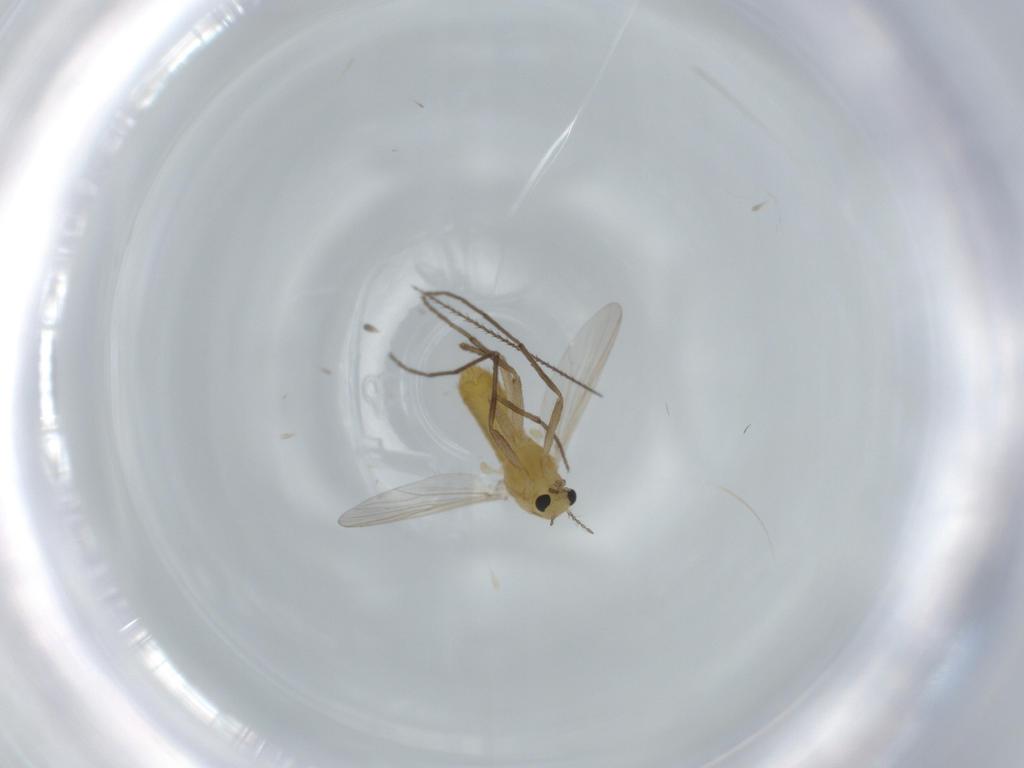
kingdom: Animalia
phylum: Arthropoda
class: Insecta
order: Diptera
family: Chironomidae
